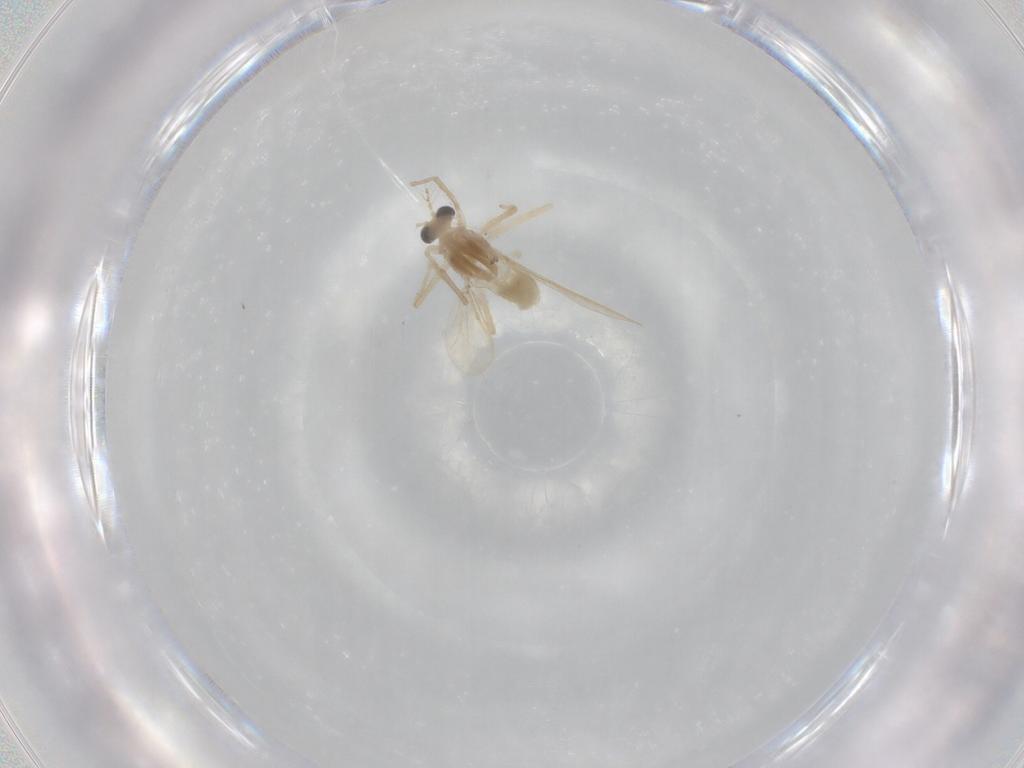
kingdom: Animalia
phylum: Arthropoda
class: Insecta
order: Diptera
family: Chironomidae
